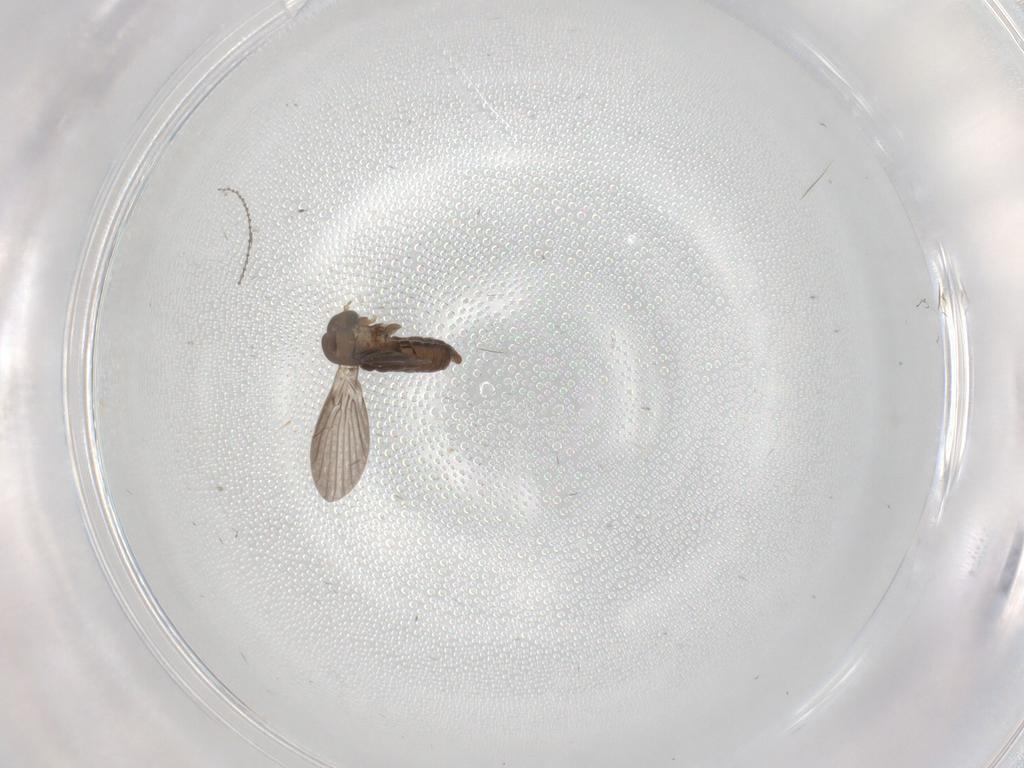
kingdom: Animalia
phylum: Arthropoda
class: Insecta
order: Diptera
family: Cecidomyiidae
